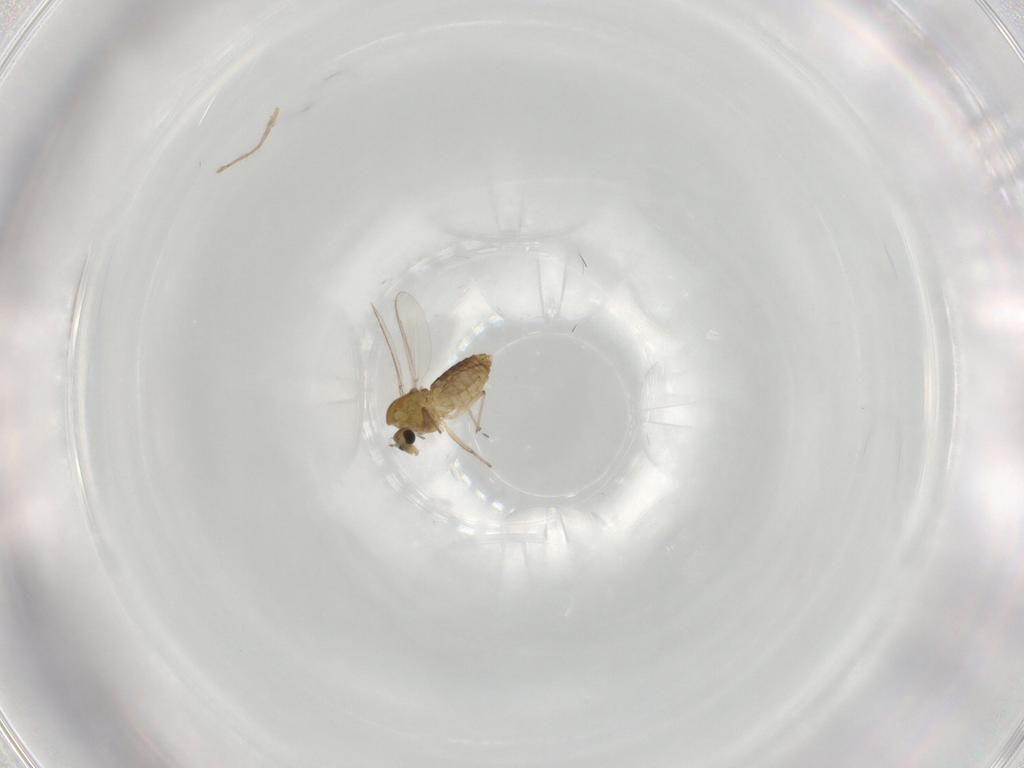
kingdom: Animalia
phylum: Arthropoda
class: Insecta
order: Diptera
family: Chironomidae
